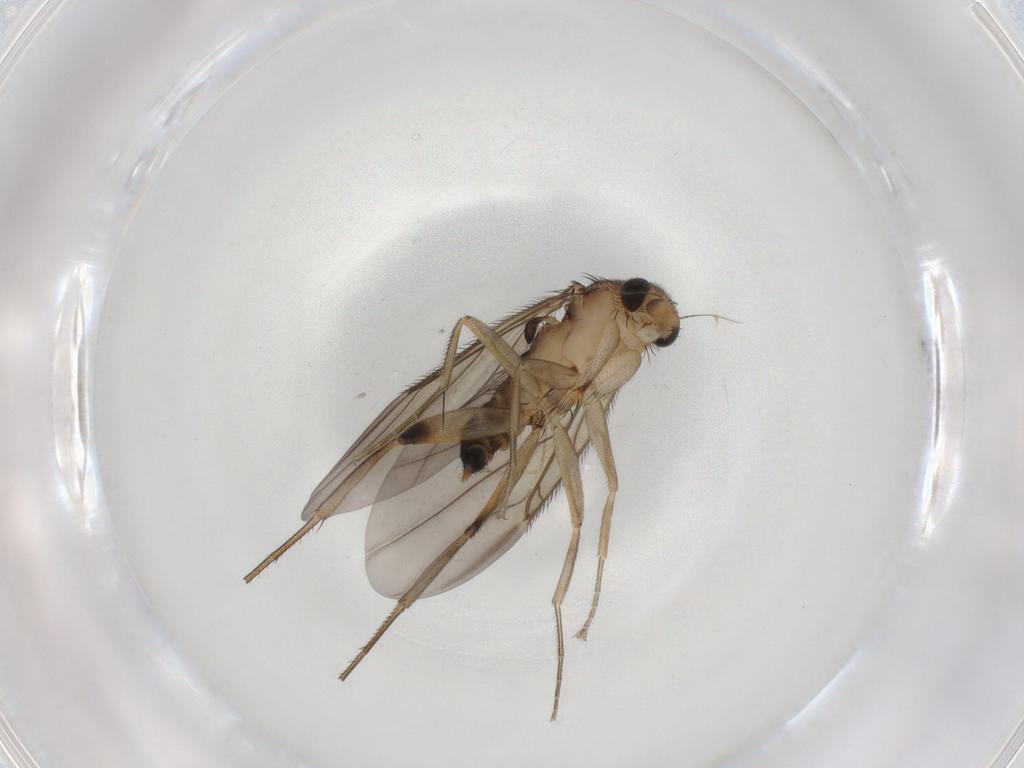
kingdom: Animalia
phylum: Arthropoda
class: Insecta
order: Diptera
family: Phoridae
